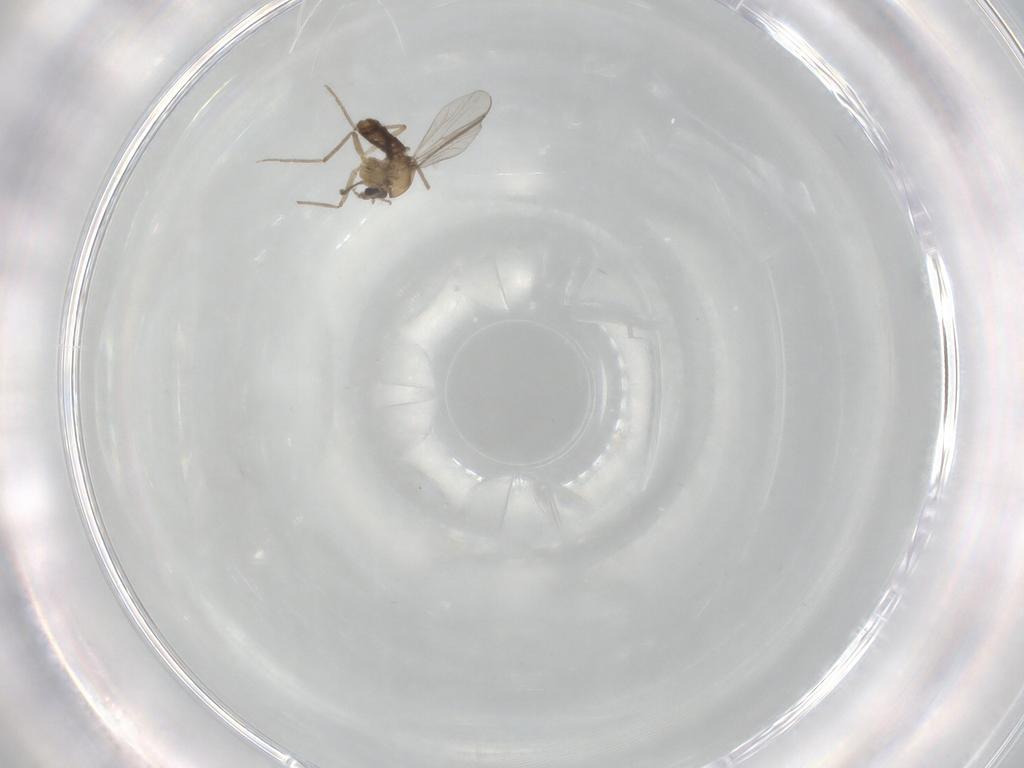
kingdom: Animalia
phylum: Arthropoda
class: Insecta
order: Diptera
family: Chironomidae
